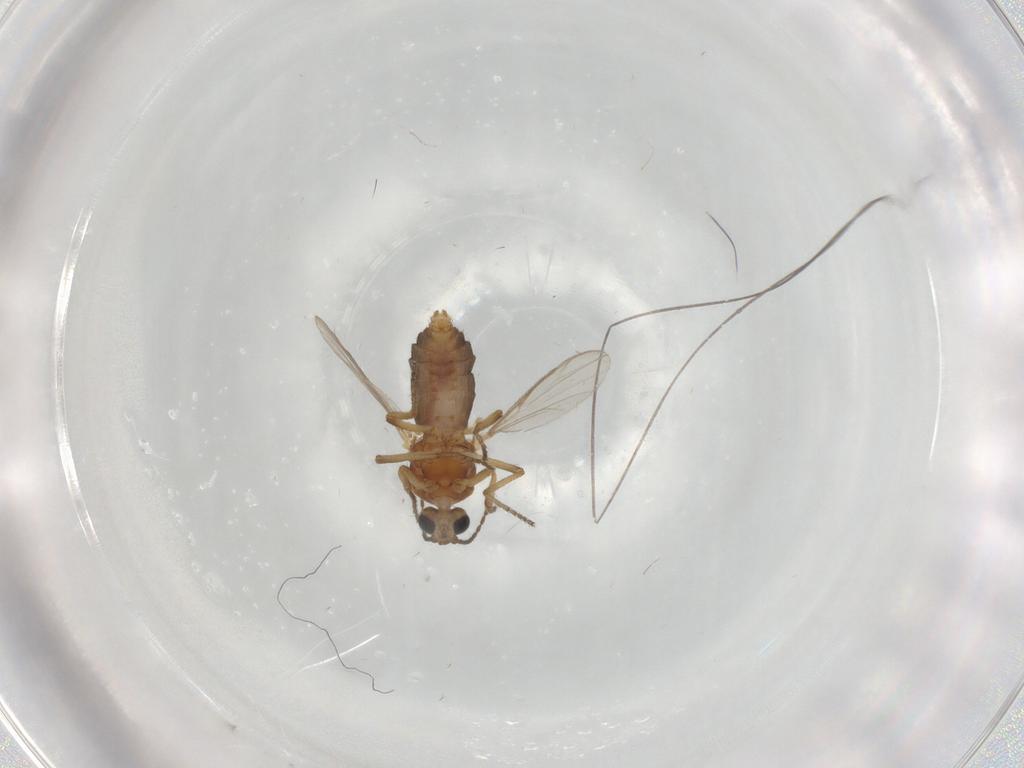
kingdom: Animalia
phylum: Arthropoda
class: Insecta
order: Diptera
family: Ceratopogonidae
